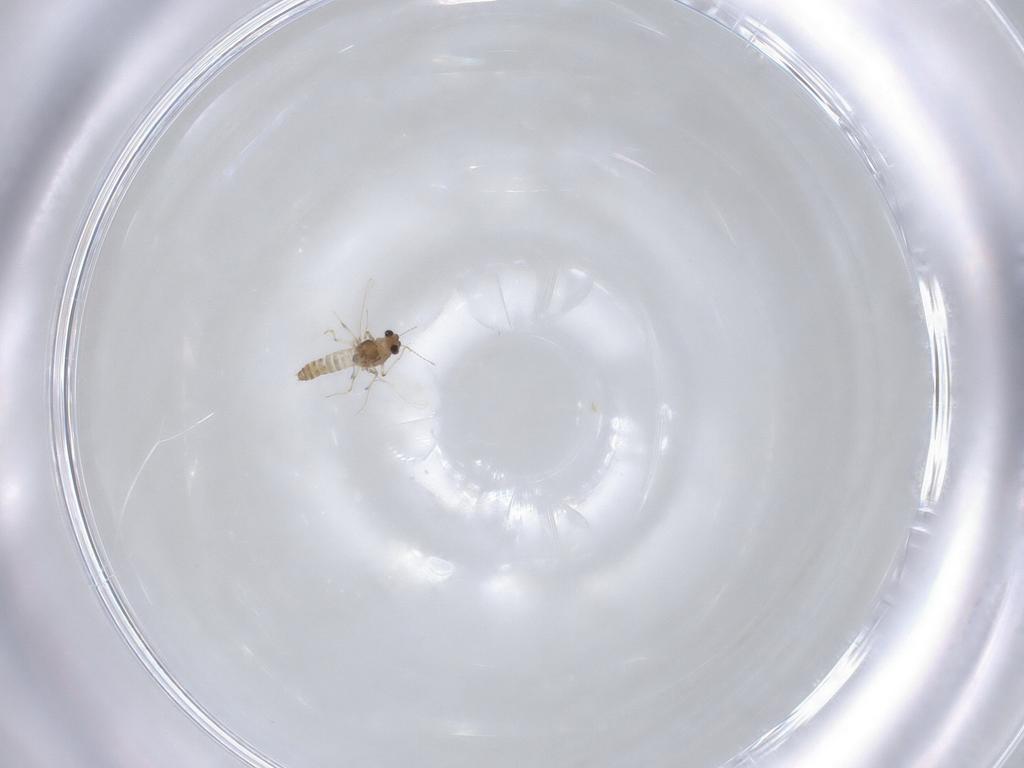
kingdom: Animalia
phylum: Arthropoda
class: Insecta
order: Diptera
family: Chironomidae
